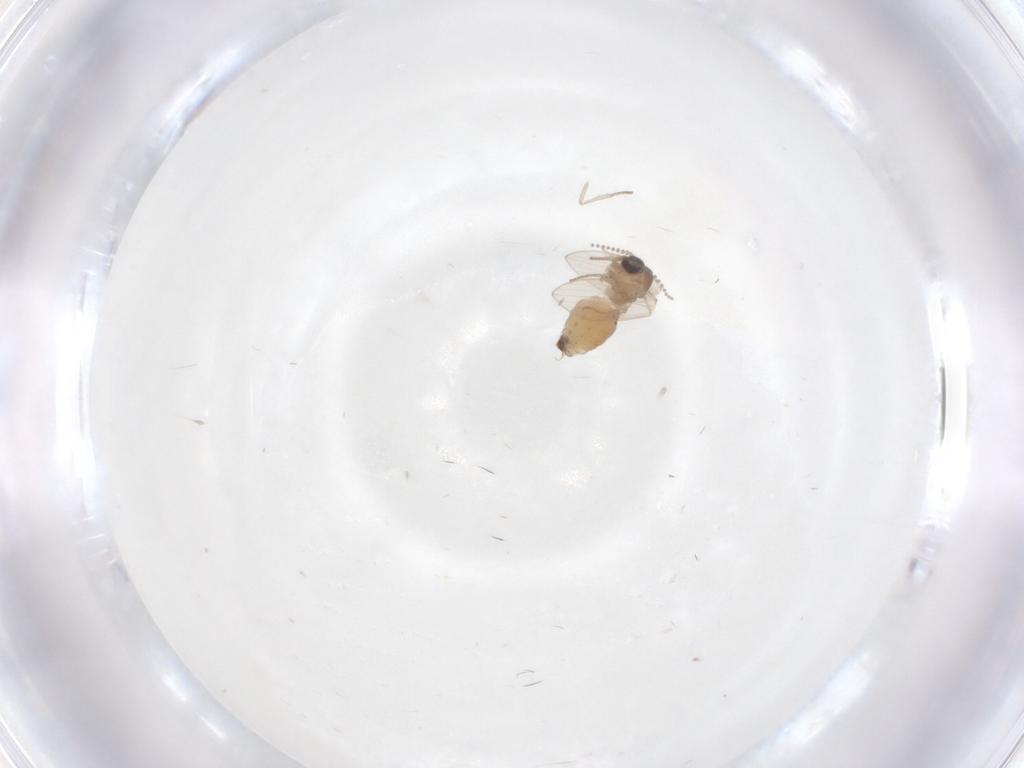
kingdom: Animalia
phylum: Arthropoda
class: Insecta
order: Diptera
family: Psychodidae
